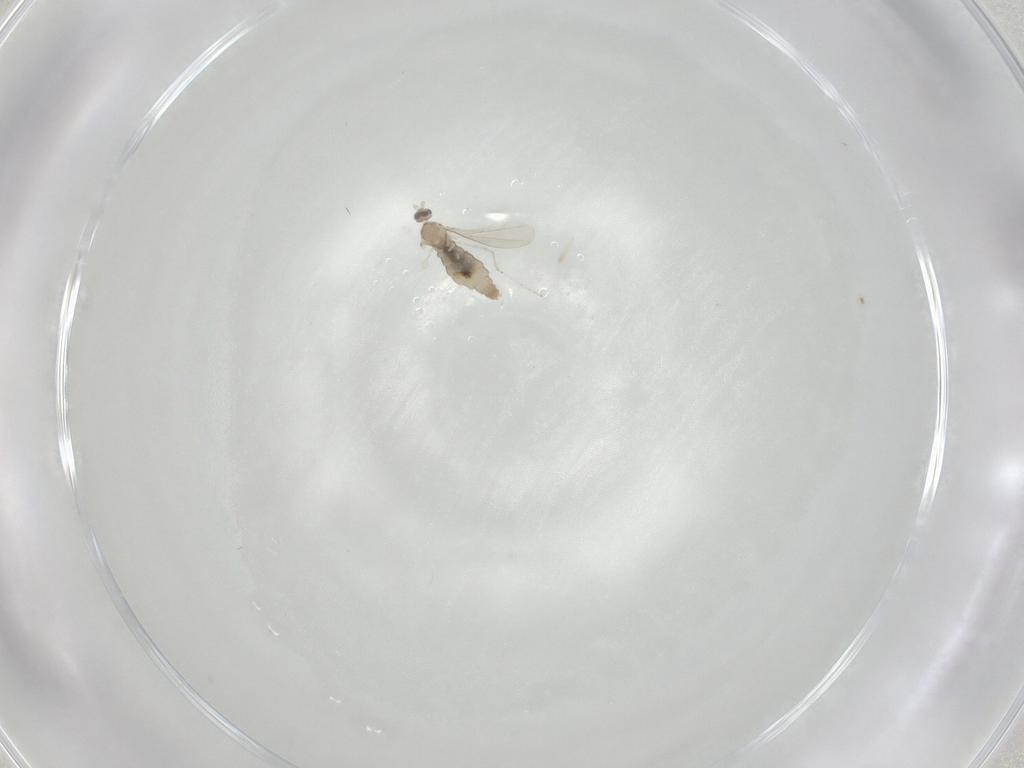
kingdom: Animalia
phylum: Arthropoda
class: Insecta
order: Diptera
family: Cecidomyiidae
